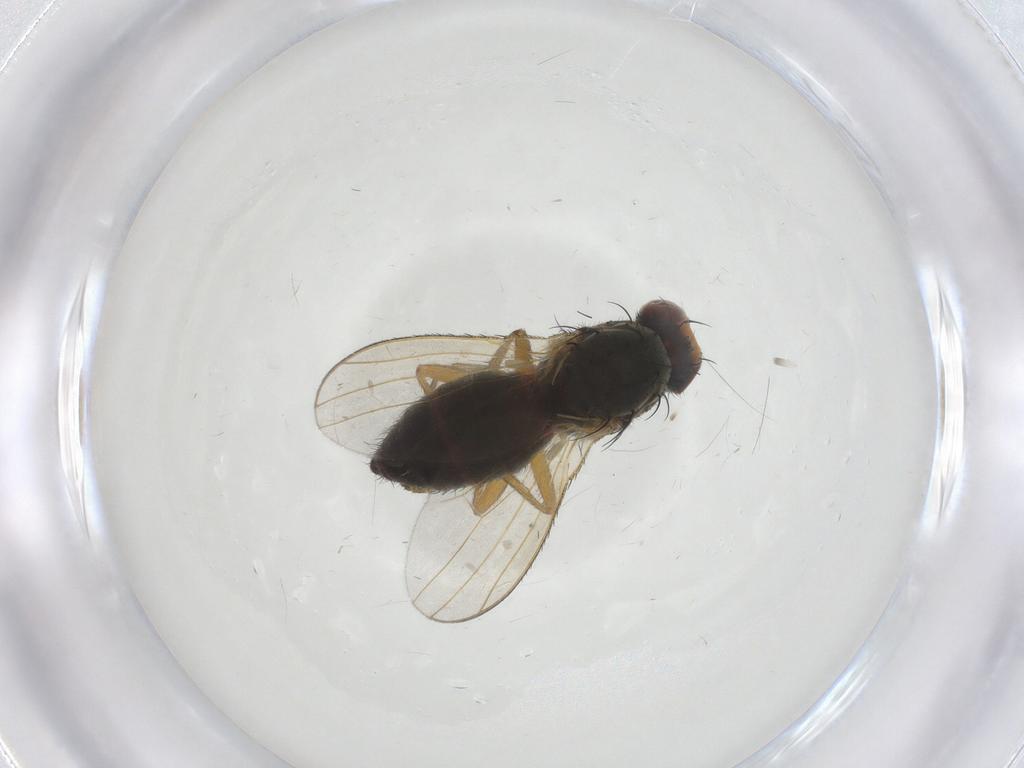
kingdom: Animalia
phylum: Arthropoda
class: Insecta
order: Diptera
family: Heleomyzidae
